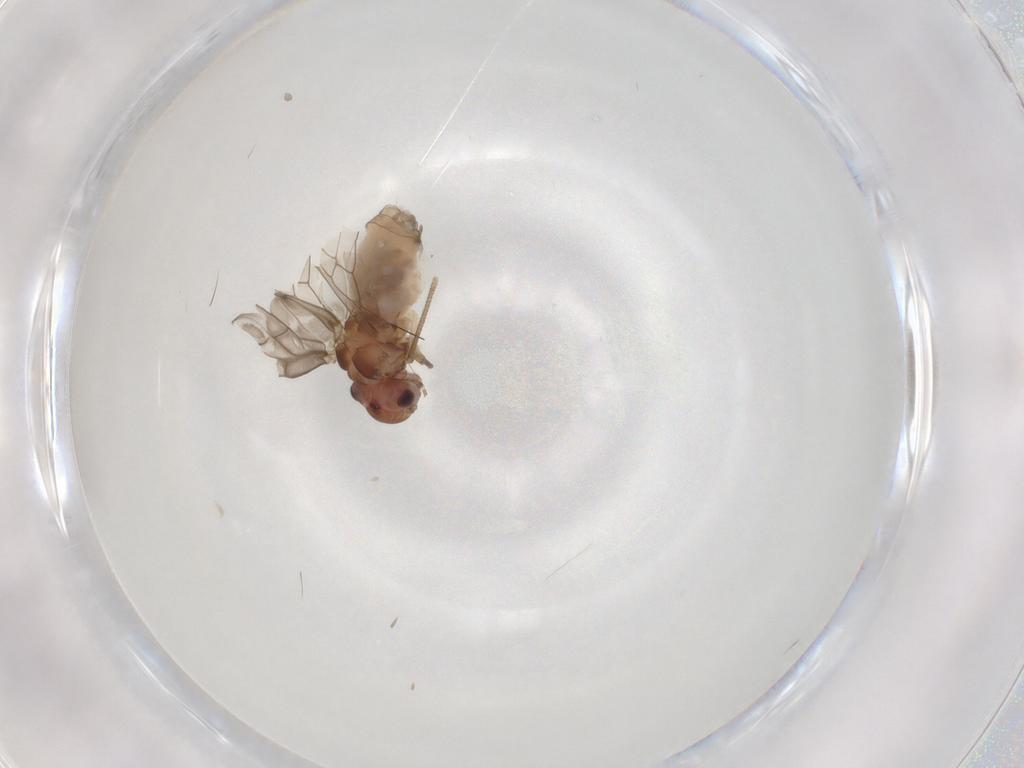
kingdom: Animalia
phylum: Arthropoda
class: Insecta
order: Psocodea
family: Peripsocidae
